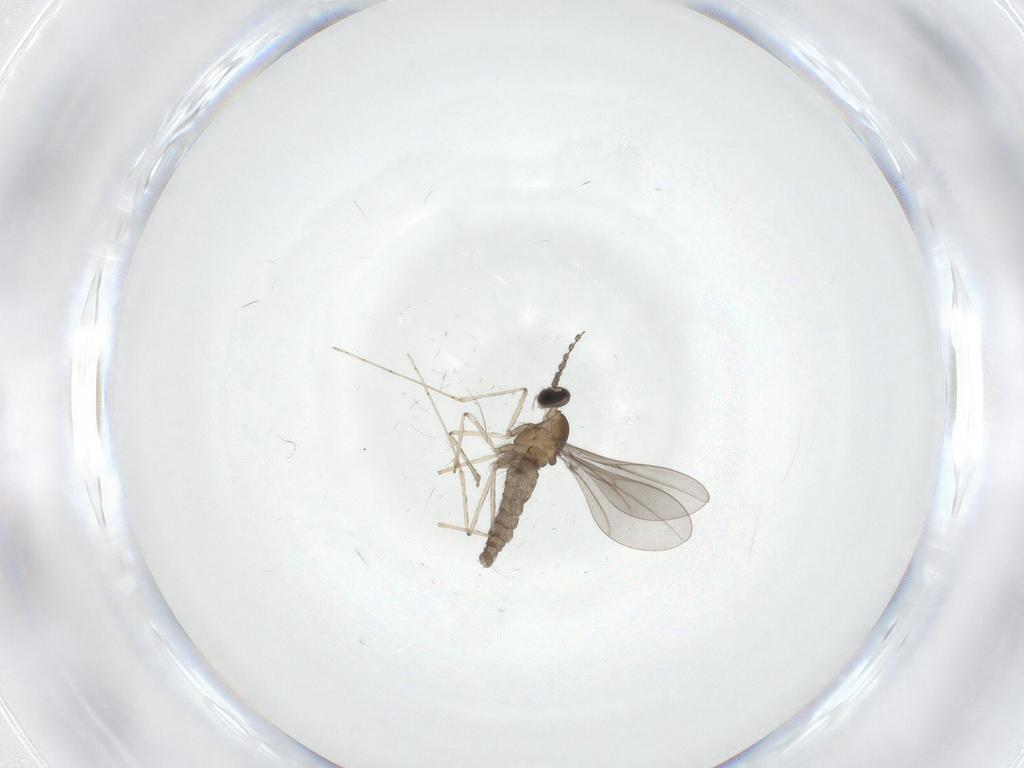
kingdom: Animalia
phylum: Arthropoda
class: Insecta
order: Diptera
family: Cecidomyiidae
